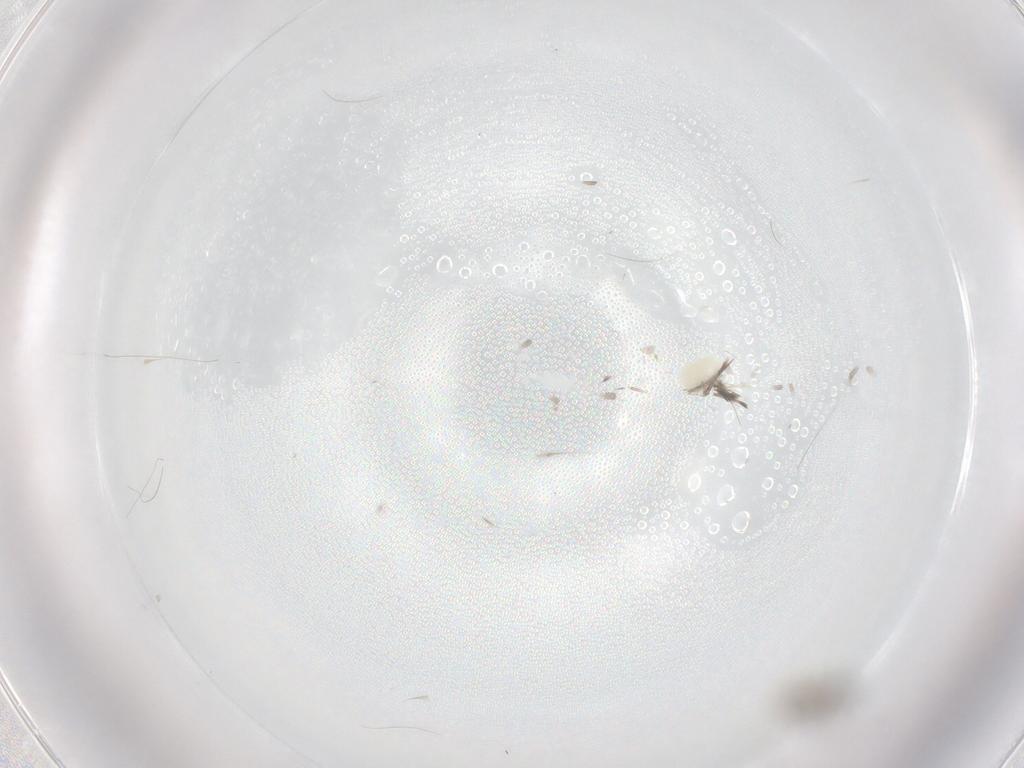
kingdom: Animalia
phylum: Arthropoda
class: Insecta
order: Diptera
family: Cecidomyiidae
